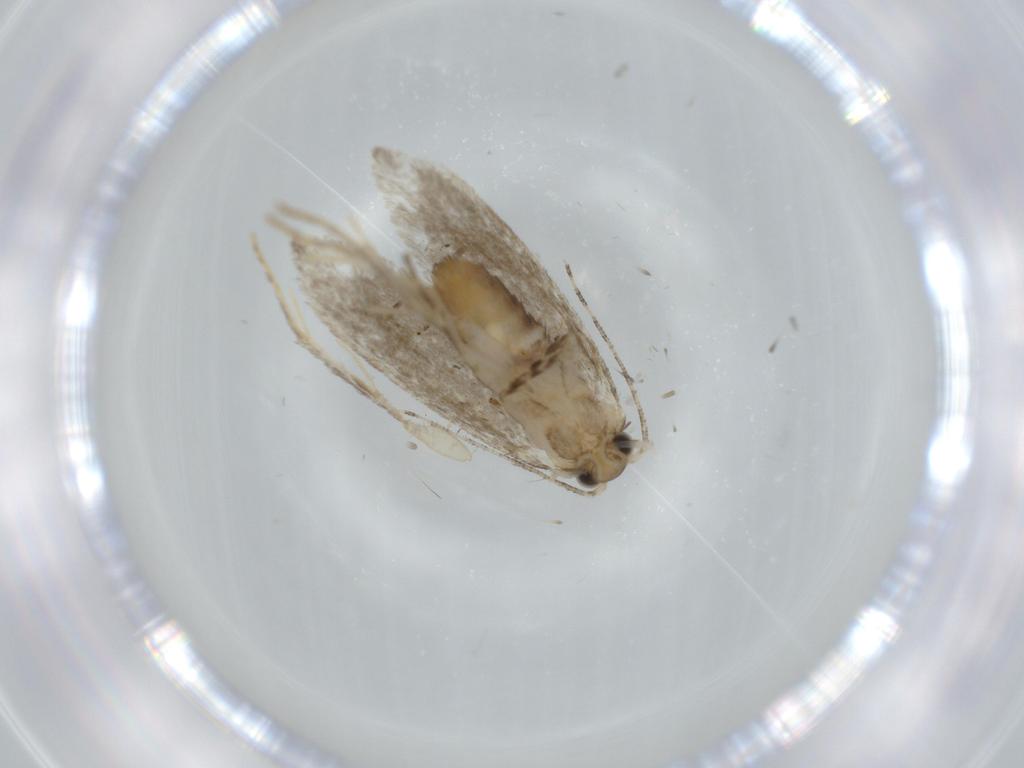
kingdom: Animalia
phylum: Arthropoda
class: Insecta
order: Lepidoptera
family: Tineidae
